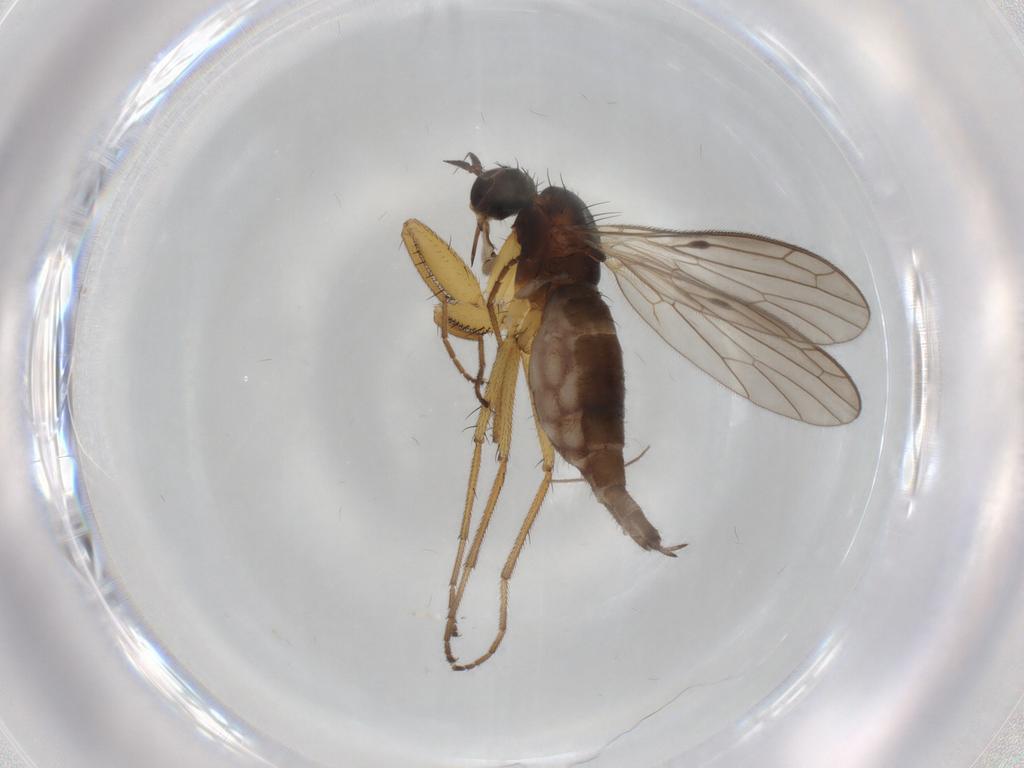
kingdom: Animalia
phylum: Arthropoda
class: Insecta
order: Diptera
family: Empididae
